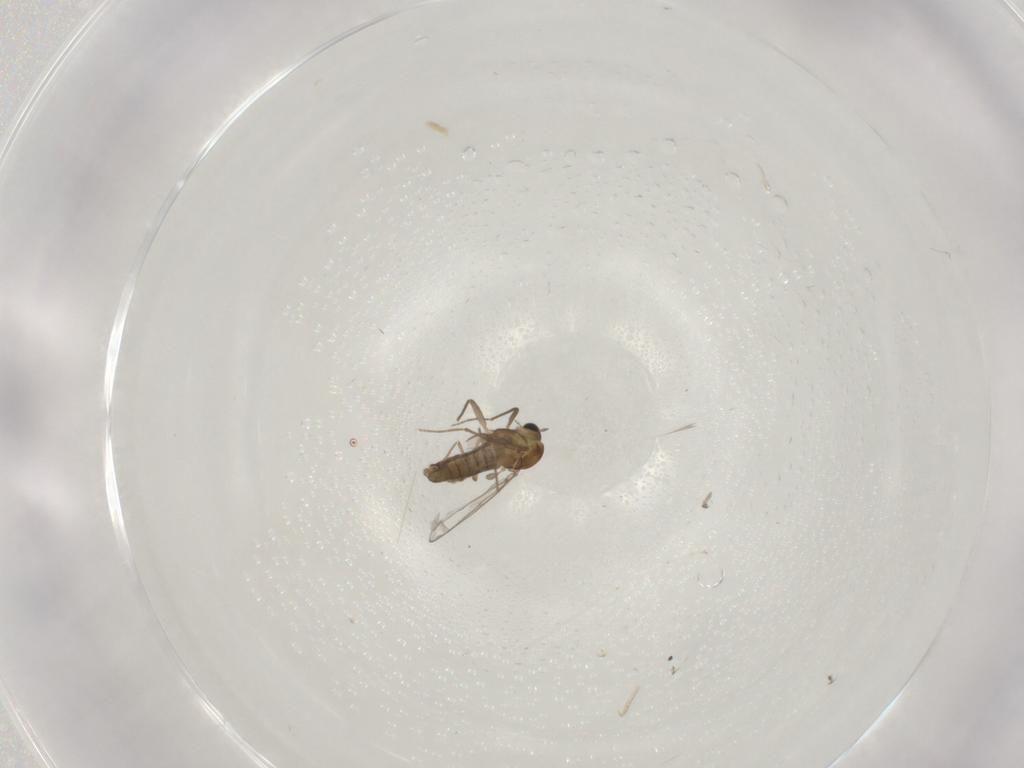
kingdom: Animalia
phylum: Arthropoda
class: Insecta
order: Diptera
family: Chironomidae
